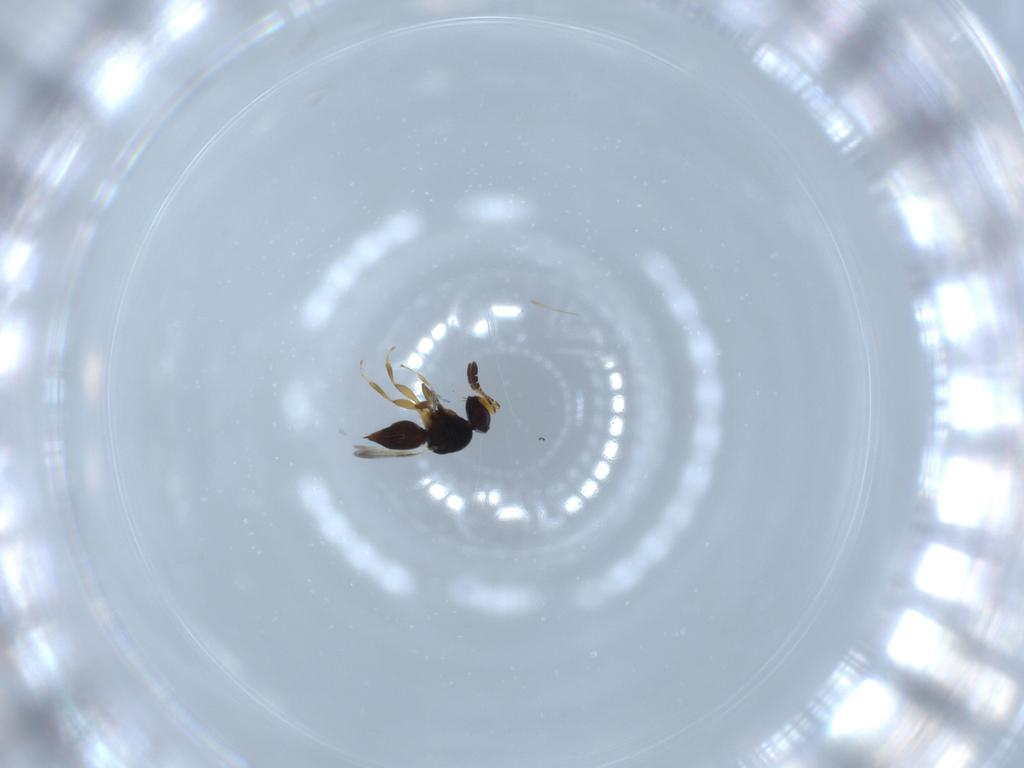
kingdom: Animalia
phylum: Arthropoda
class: Insecta
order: Hymenoptera
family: Ceraphronidae
